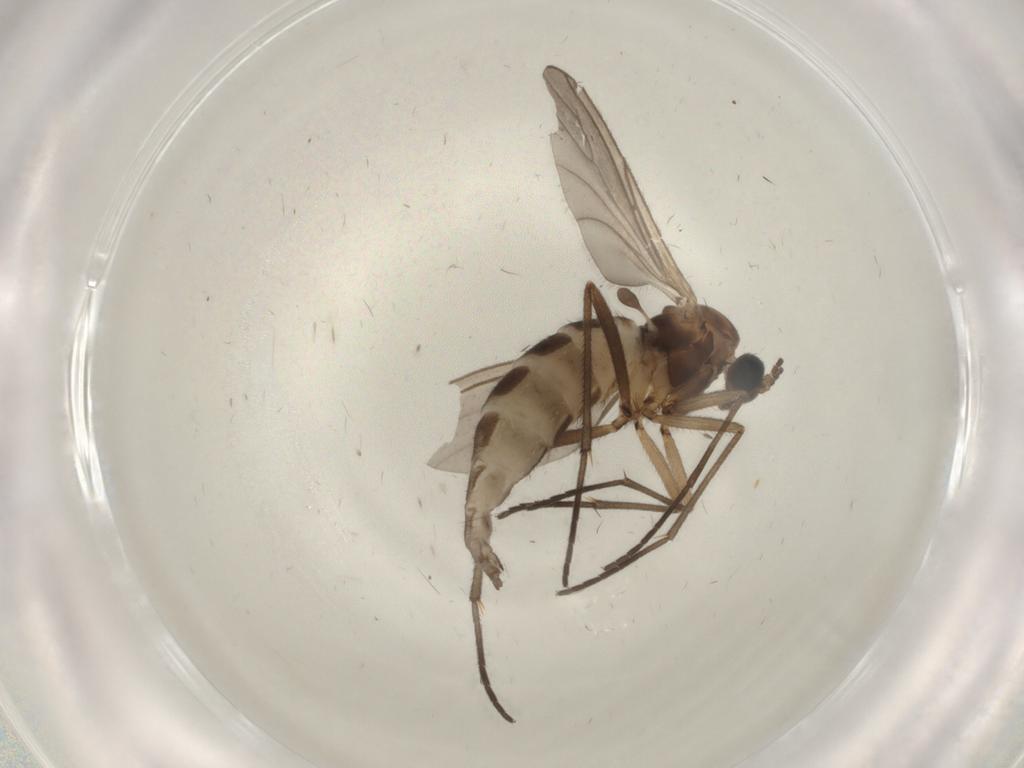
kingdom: Animalia
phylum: Arthropoda
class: Insecta
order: Diptera
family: Sciaridae
